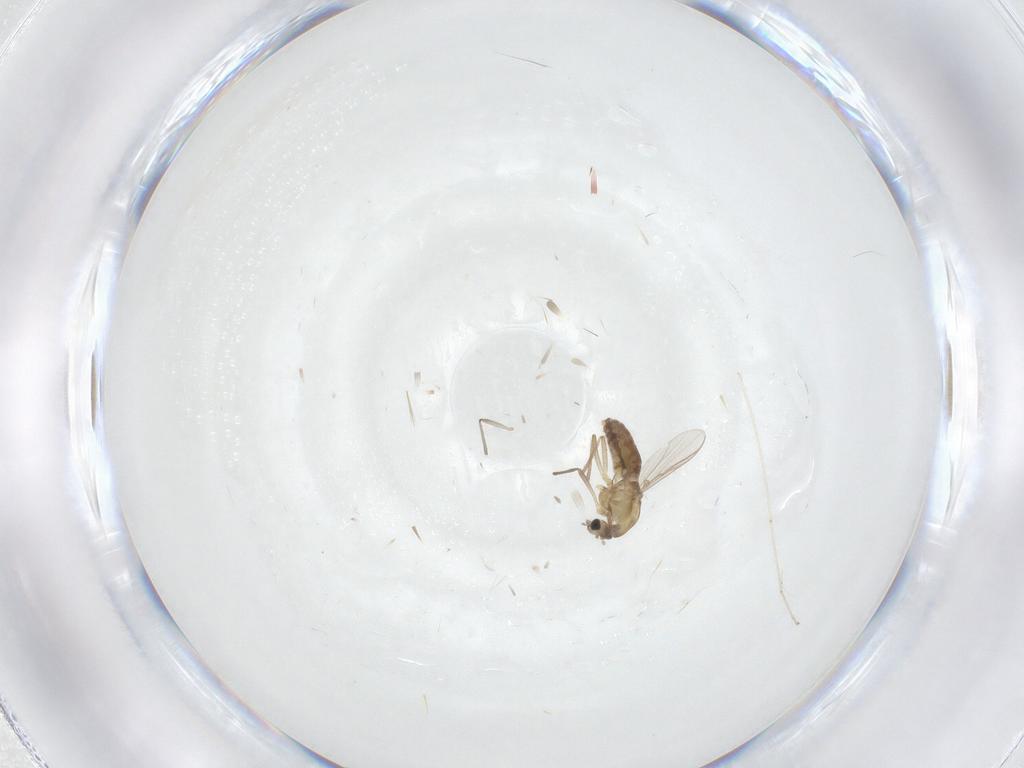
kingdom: Animalia
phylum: Arthropoda
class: Insecta
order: Diptera
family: Chironomidae
